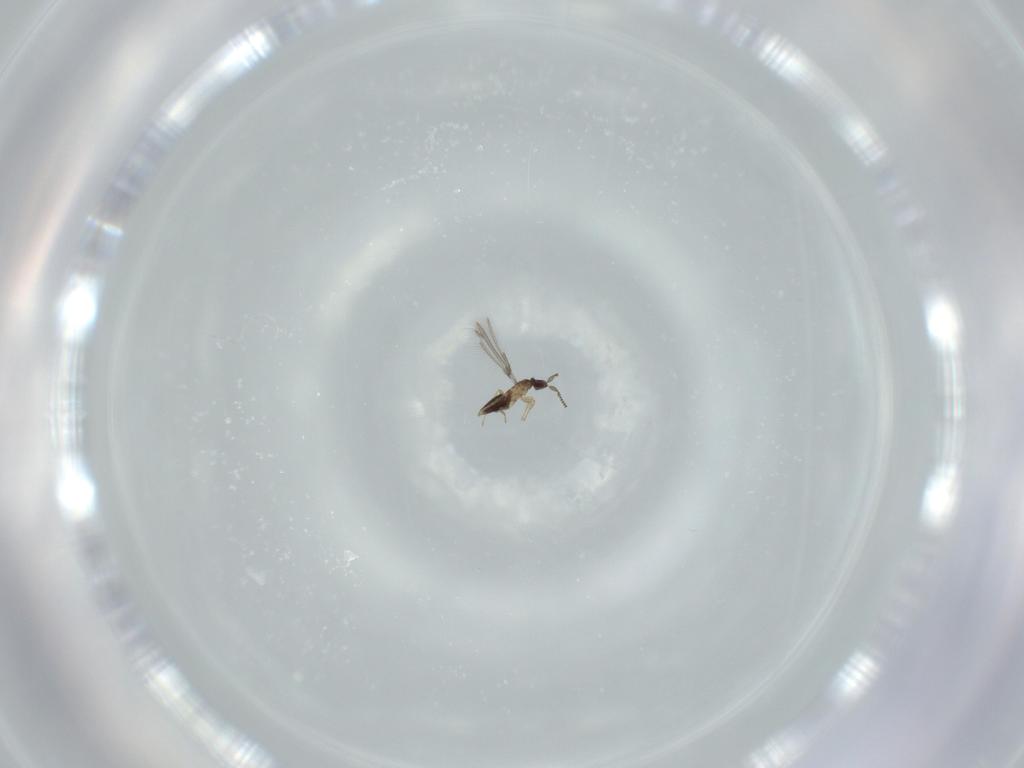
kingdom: Animalia
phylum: Arthropoda
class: Insecta
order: Hymenoptera
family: Mymaridae
